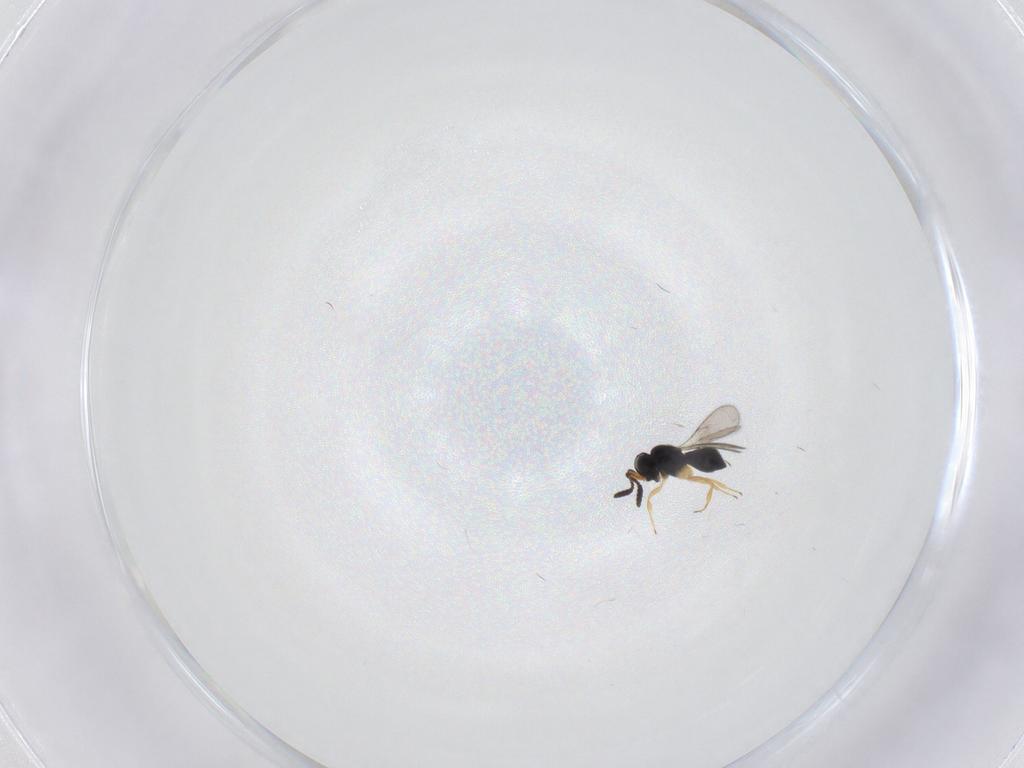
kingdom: Animalia
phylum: Arthropoda
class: Insecta
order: Hymenoptera
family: Scelionidae
